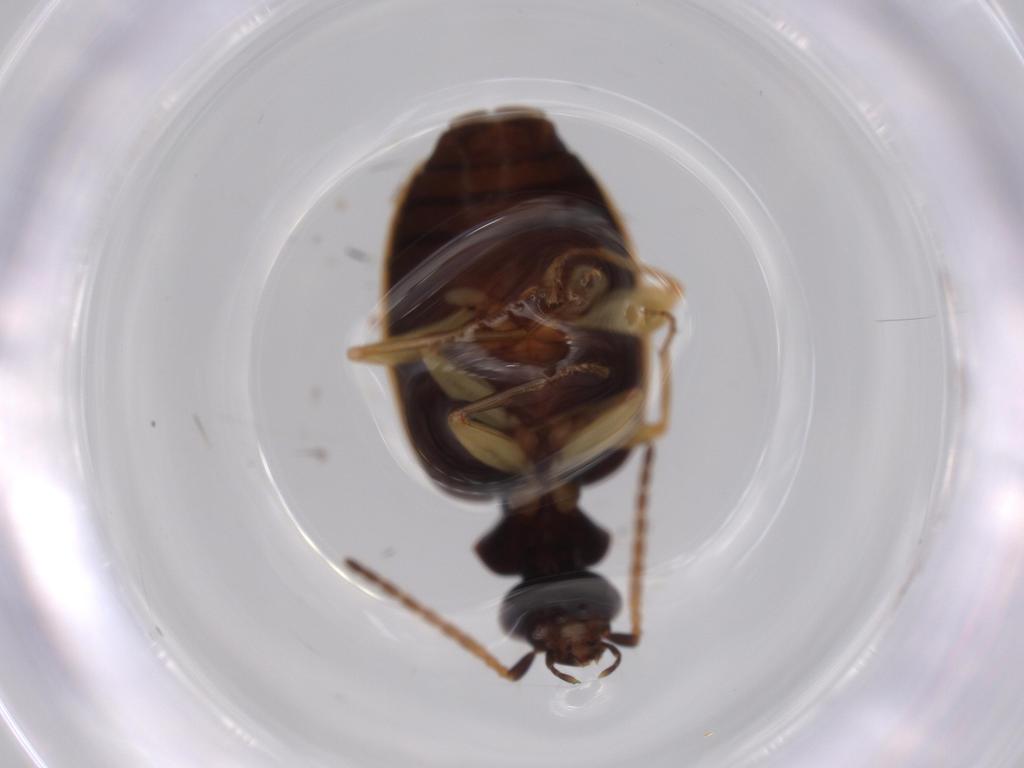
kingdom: Animalia
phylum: Arthropoda
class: Insecta
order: Coleoptera
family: Carabidae
